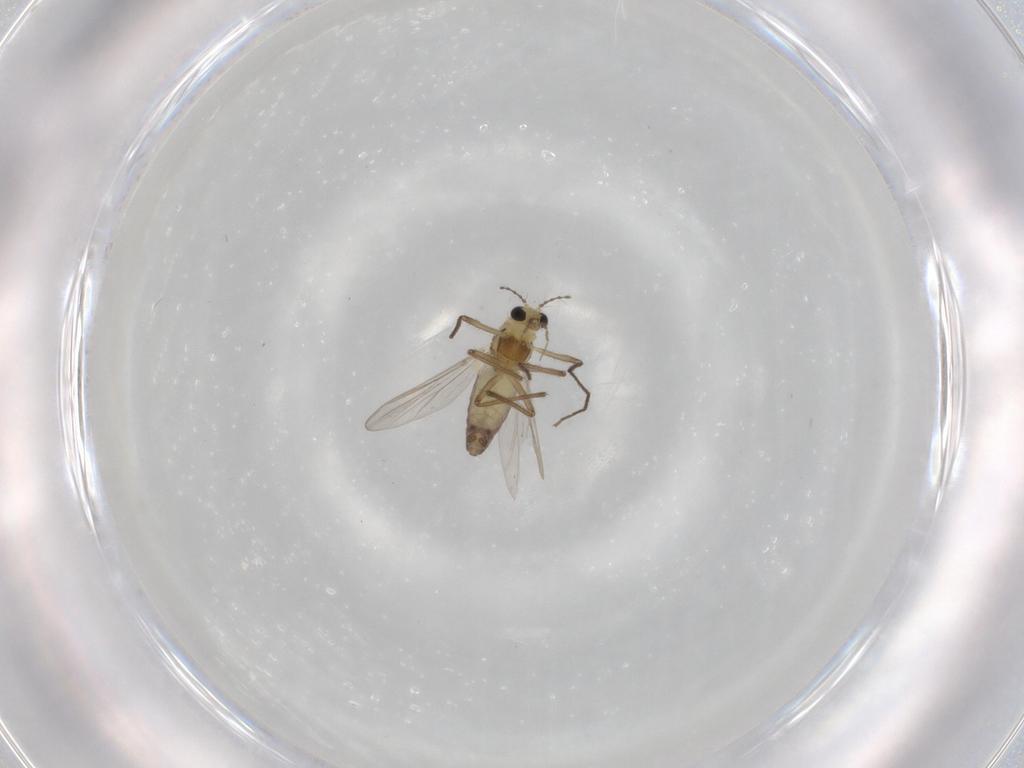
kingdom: Animalia
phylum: Arthropoda
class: Insecta
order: Diptera
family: Chironomidae
